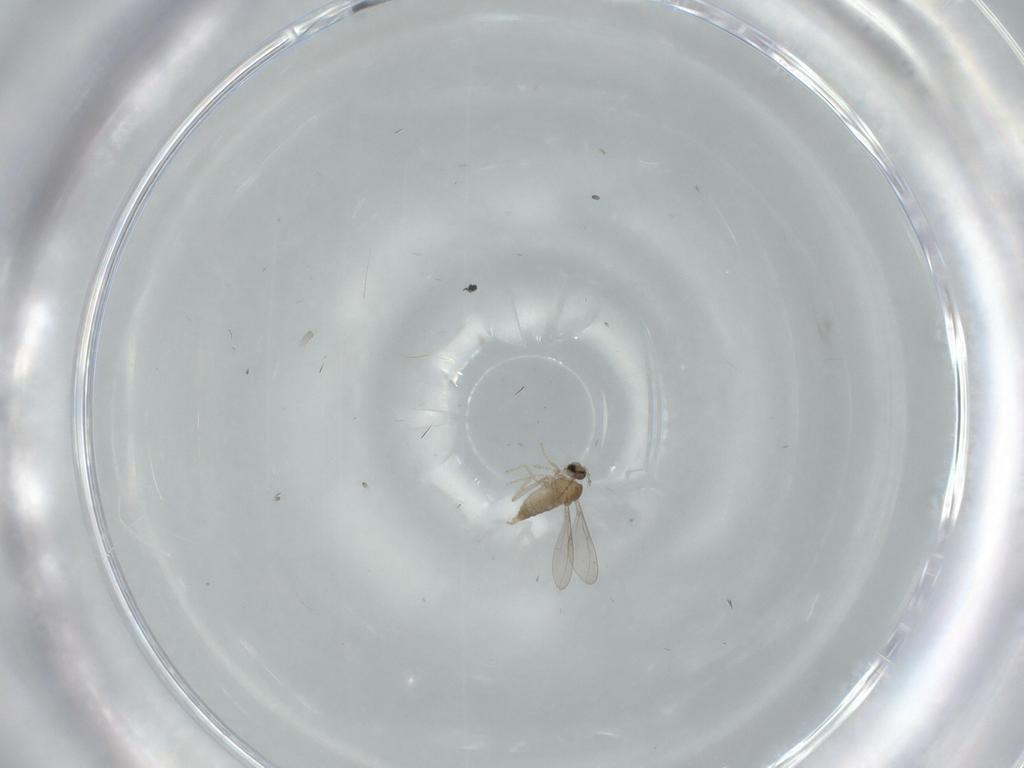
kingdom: Animalia
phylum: Arthropoda
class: Insecta
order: Diptera
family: Cecidomyiidae
